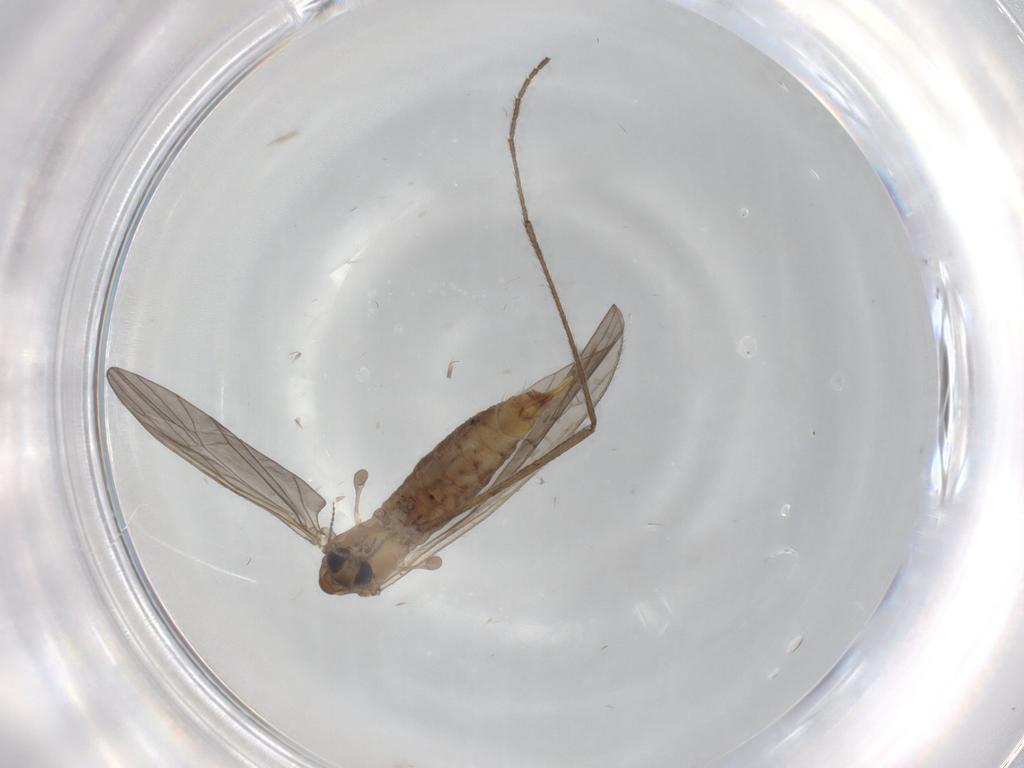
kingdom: Animalia
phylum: Arthropoda
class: Insecta
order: Diptera
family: Limoniidae
